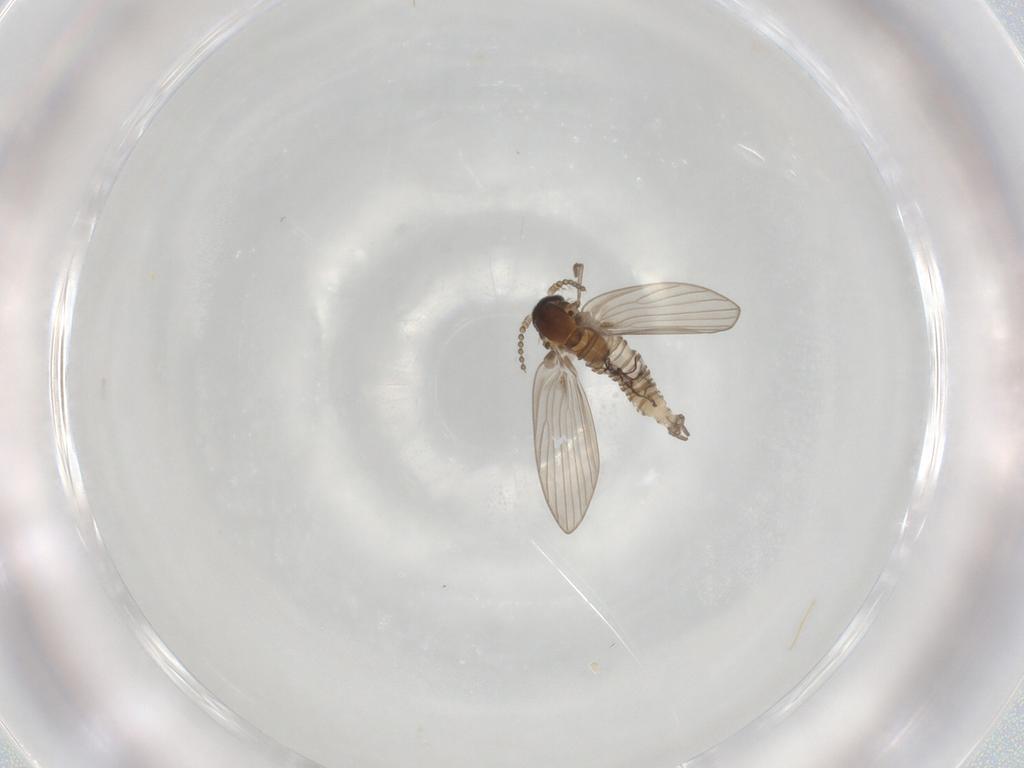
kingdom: Animalia
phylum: Arthropoda
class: Insecta
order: Diptera
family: Psychodidae
